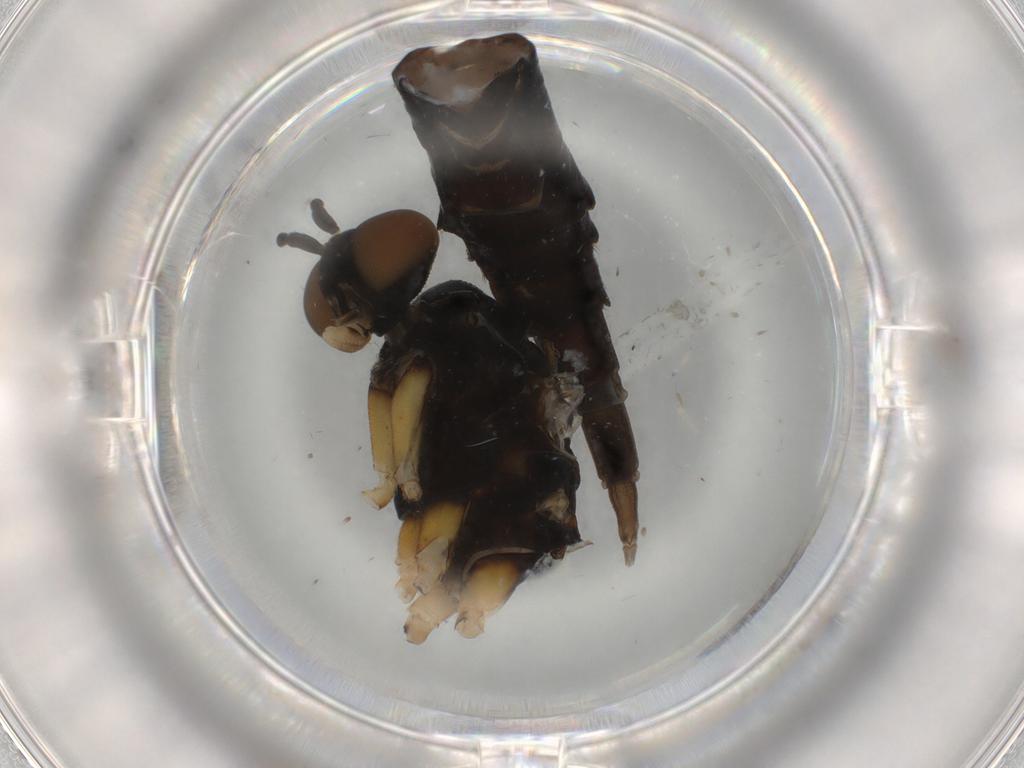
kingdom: Animalia
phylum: Arthropoda
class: Insecta
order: Diptera
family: Xylophagidae
